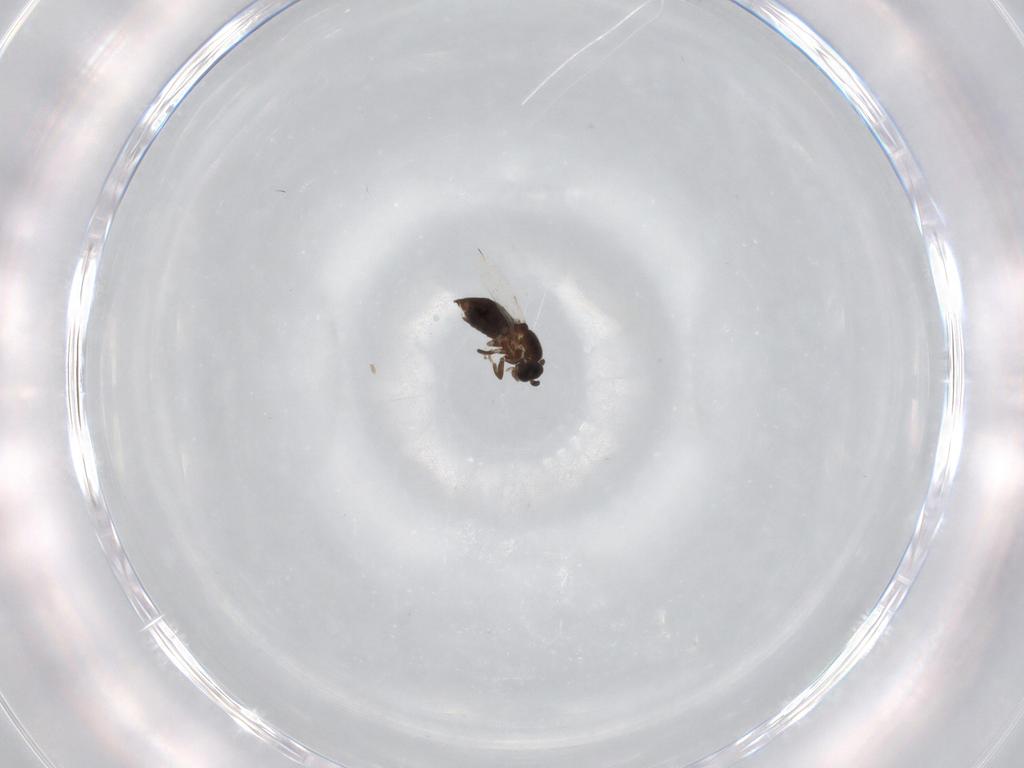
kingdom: Animalia
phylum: Arthropoda
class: Insecta
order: Diptera
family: Scatopsidae
